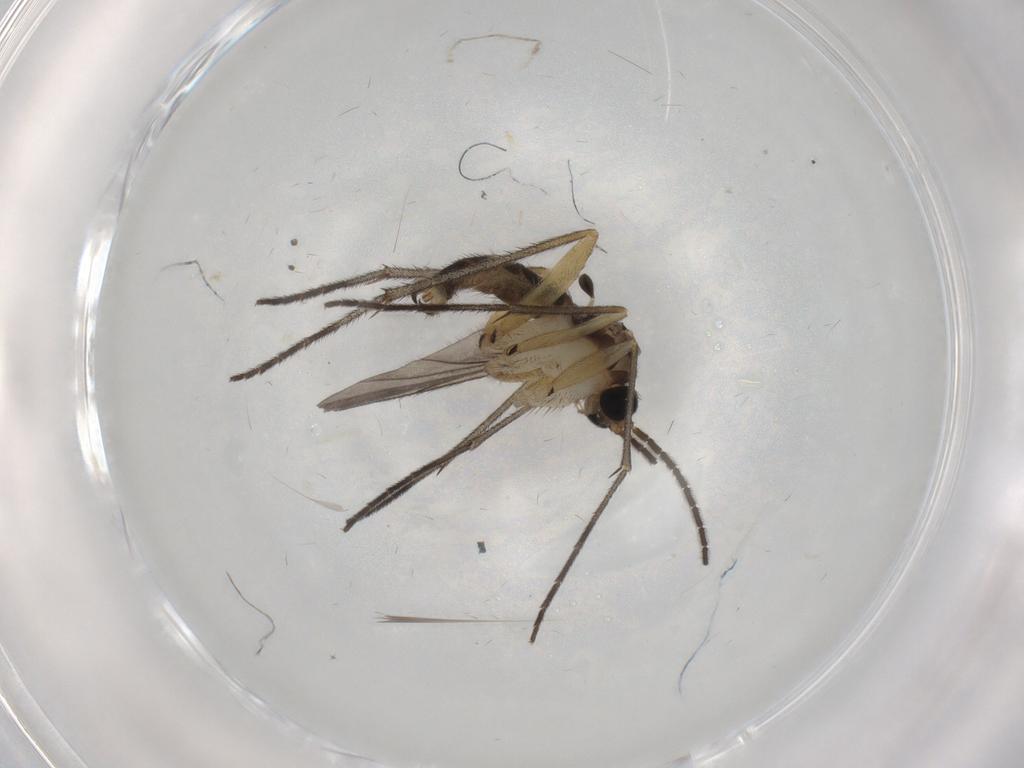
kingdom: Animalia
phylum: Arthropoda
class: Insecta
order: Diptera
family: Sciaridae
